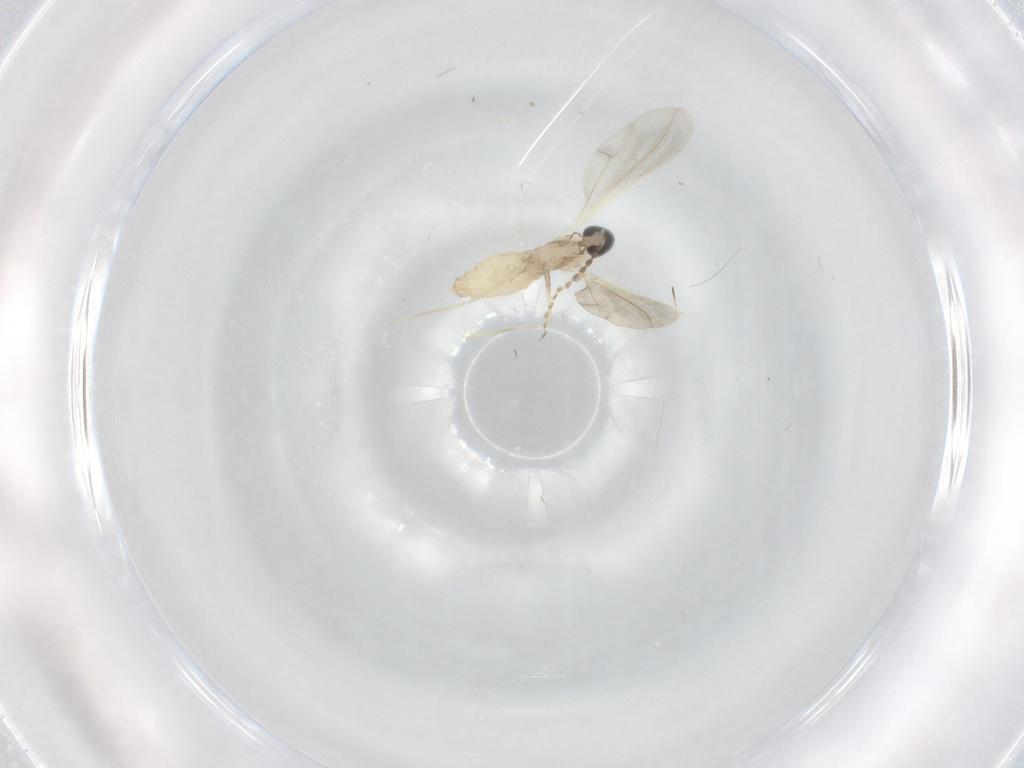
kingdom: Animalia
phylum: Arthropoda
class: Insecta
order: Diptera
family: Cecidomyiidae
